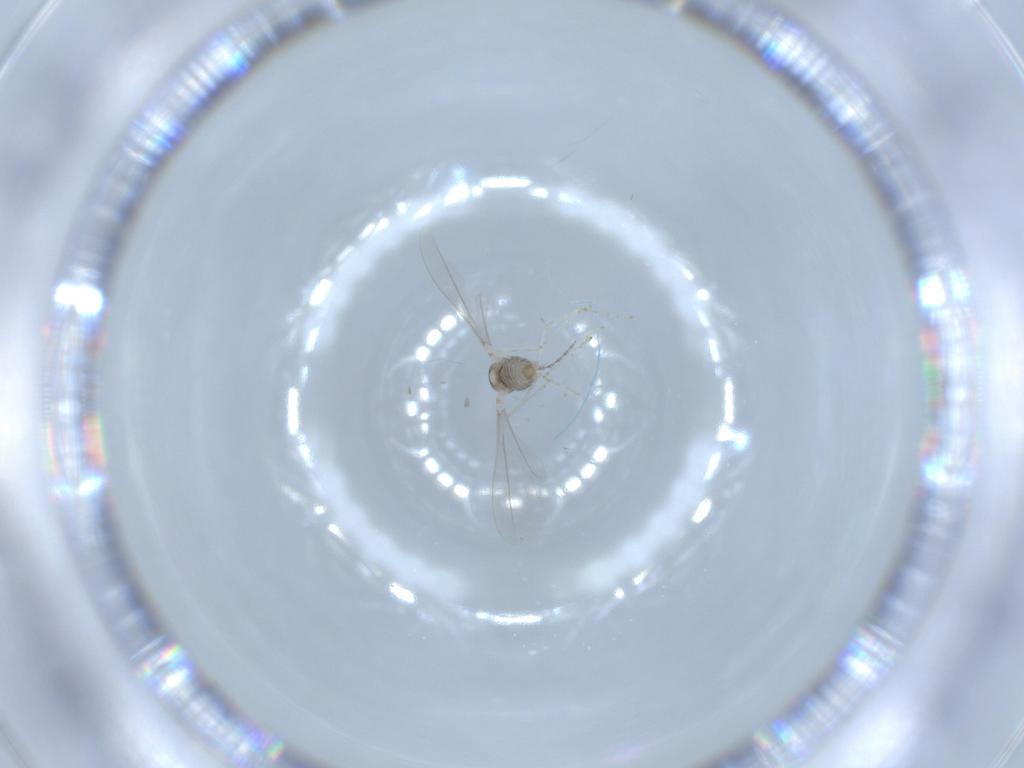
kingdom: Animalia
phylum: Arthropoda
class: Insecta
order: Diptera
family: Cecidomyiidae
